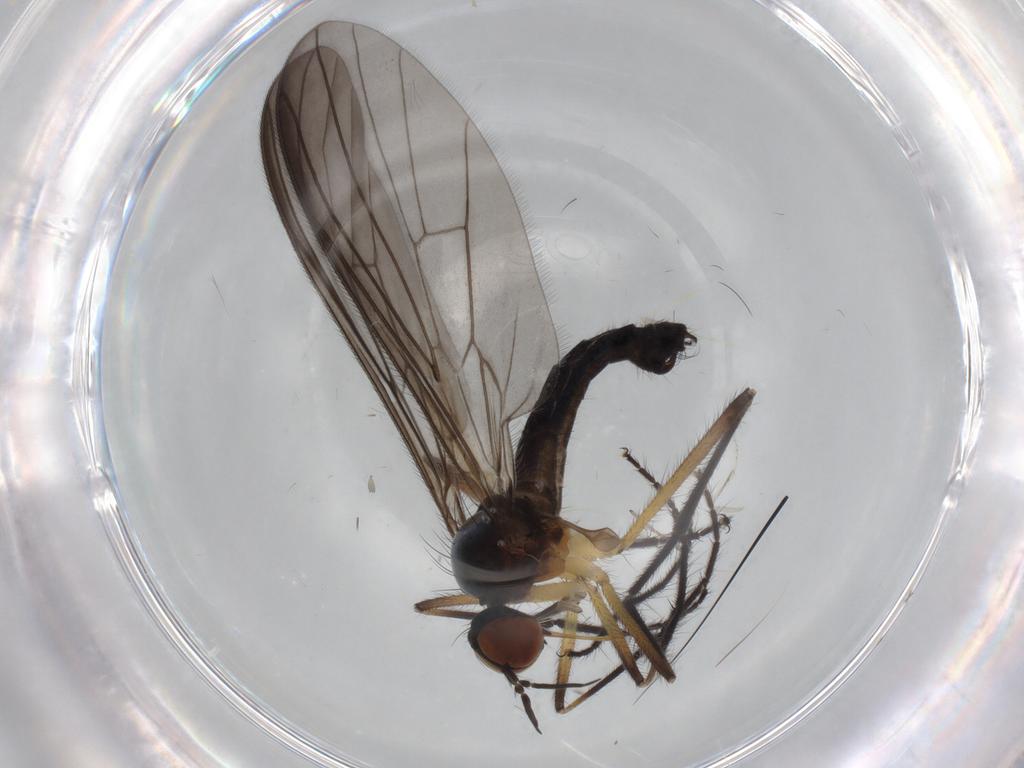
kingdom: Animalia
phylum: Arthropoda
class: Insecta
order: Diptera
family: Empididae
